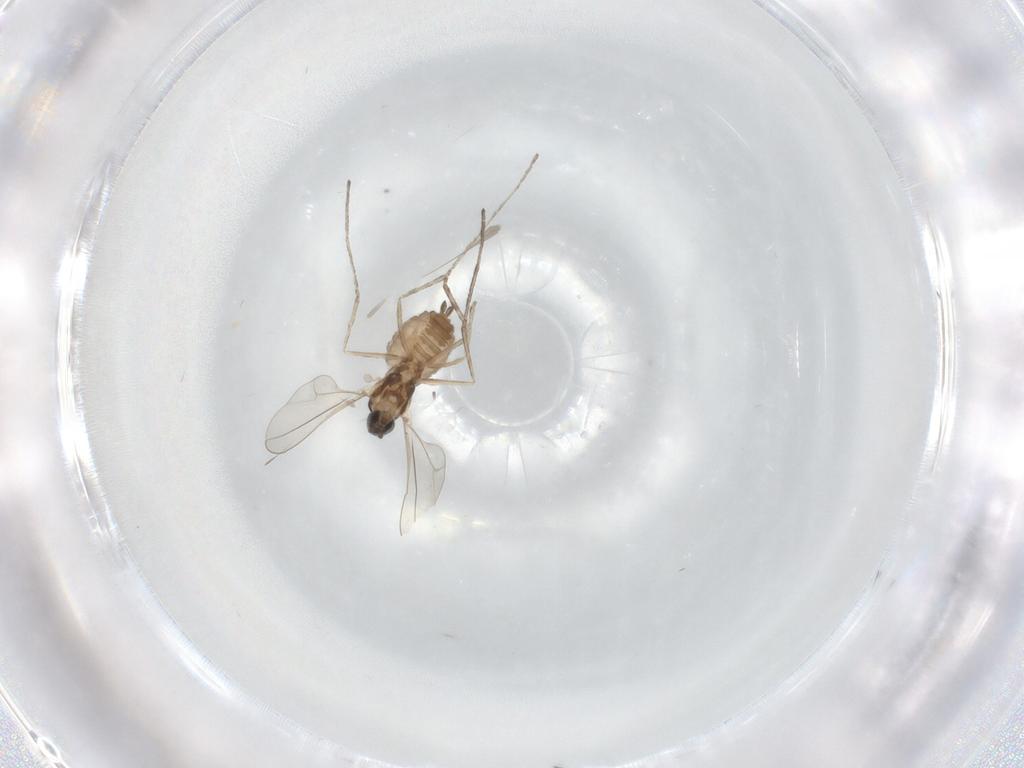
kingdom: Animalia
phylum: Arthropoda
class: Insecta
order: Diptera
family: Cecidomyiidae
